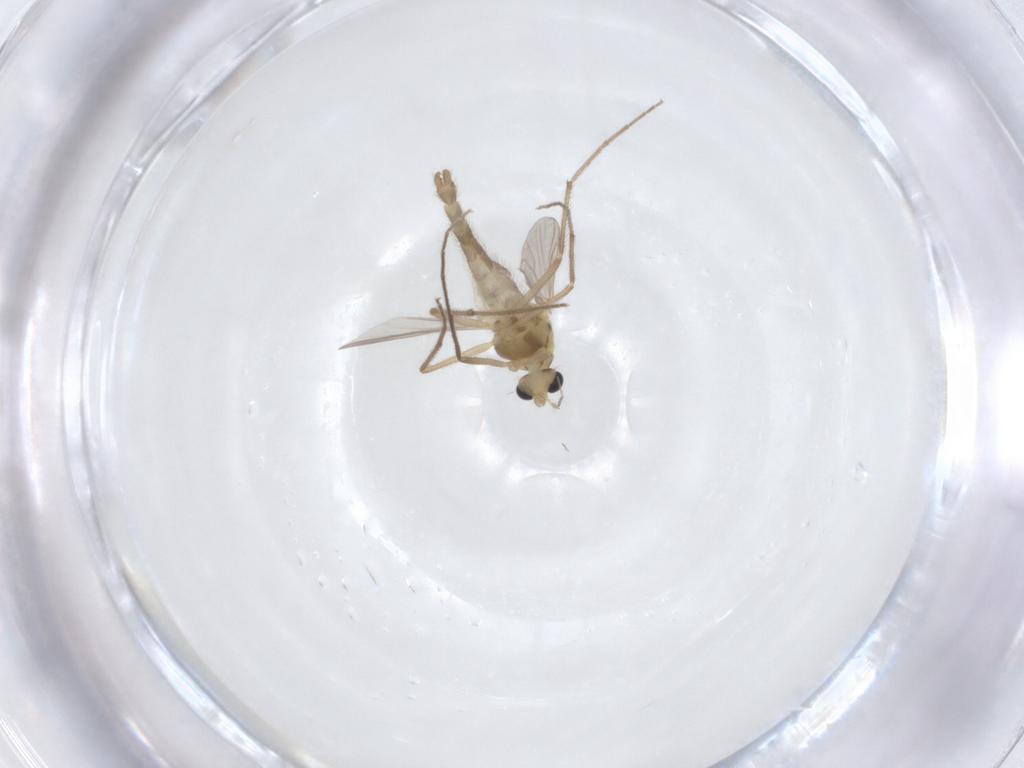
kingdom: Animalia
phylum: Arthropoda
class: Insecta
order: Diptera
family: Chironomidae
